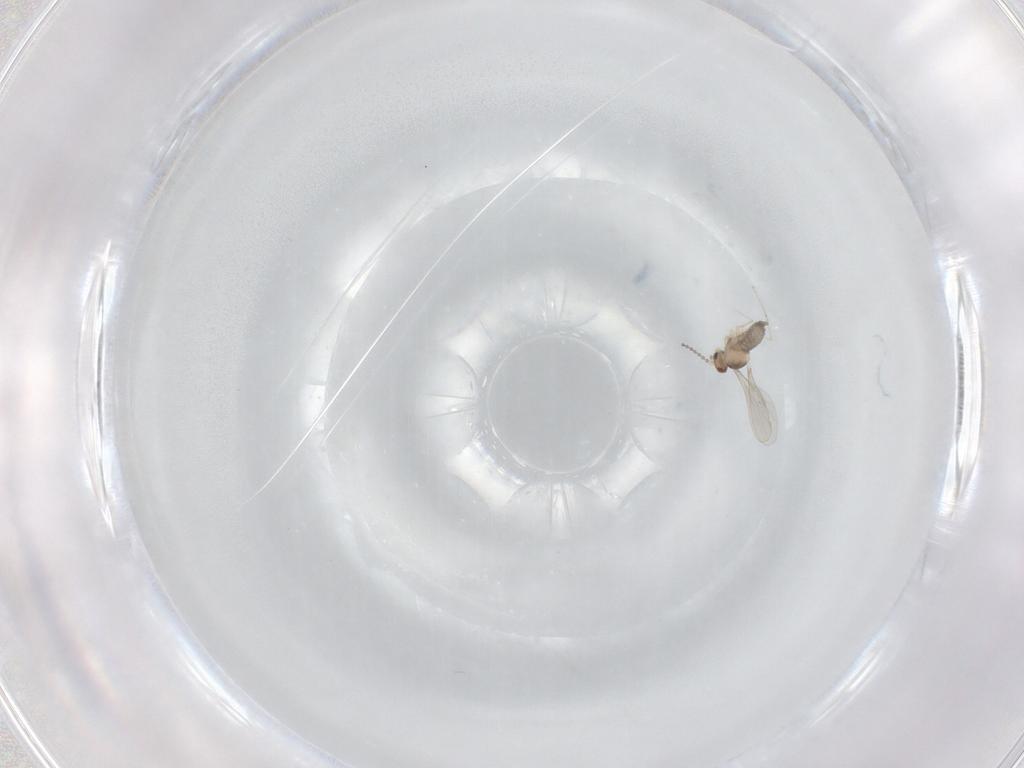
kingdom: Animalia
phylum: Arthropoda
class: Insecta
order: Diptera
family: Cecidomyiidae
